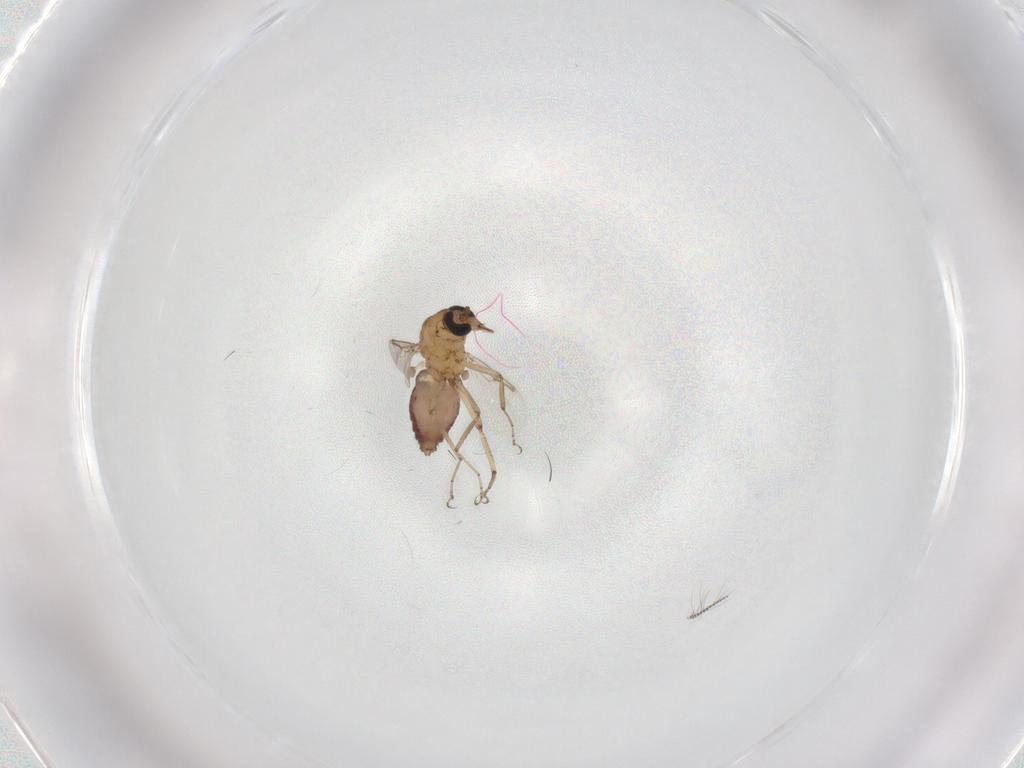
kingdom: Animalia
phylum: Arthropoda
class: Insecta
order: Diptera
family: Ceratopogonidae
